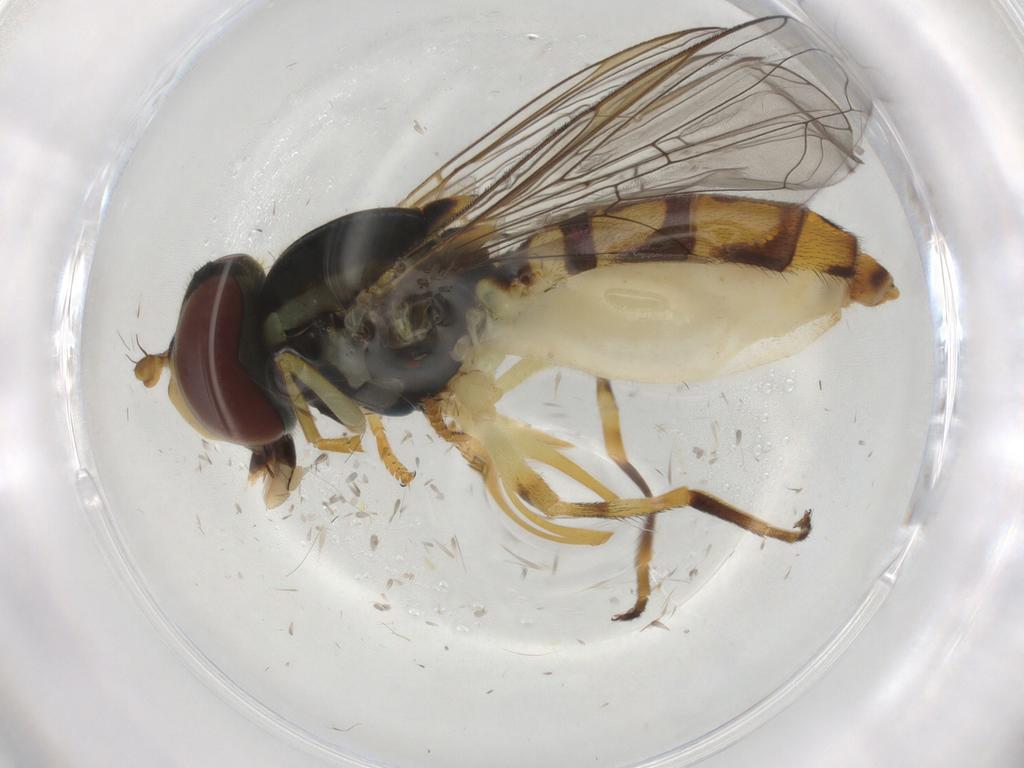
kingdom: Animalia
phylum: Arthropoda
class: Insecta
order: Diptera
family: Syrphidae
